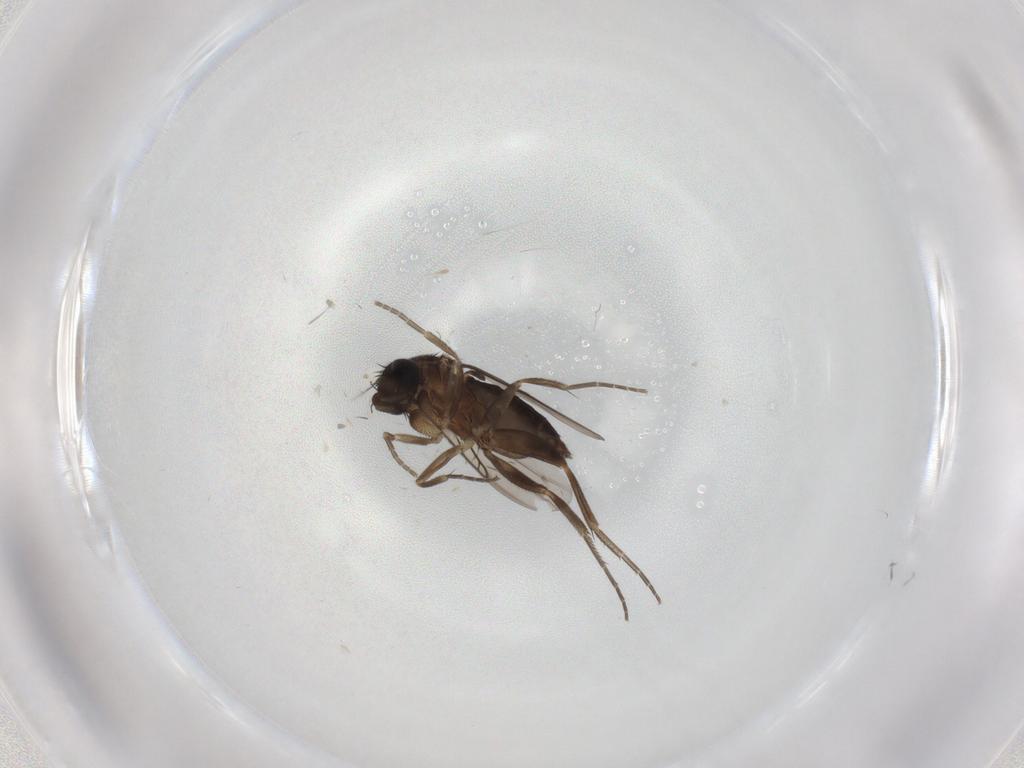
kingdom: Animalia
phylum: Arthropoda
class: Insecta
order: Diptera
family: Phoridae
